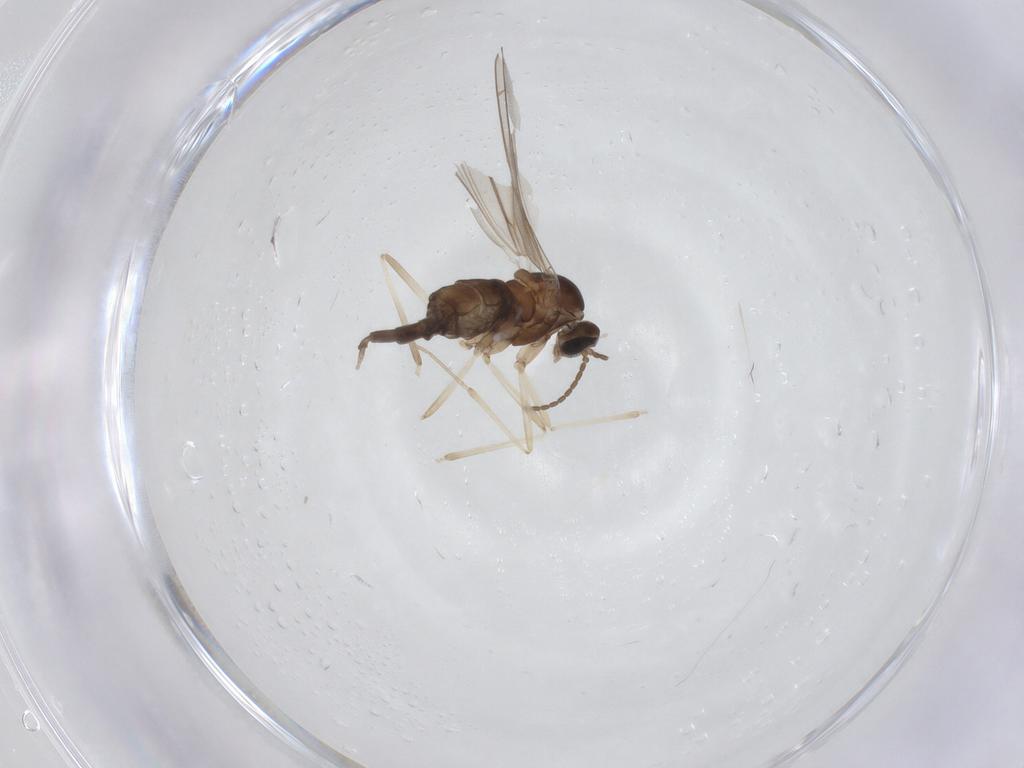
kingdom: Animalia
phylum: Arthropoda
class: Insecta
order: Diptera
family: Cecidomyiidae
